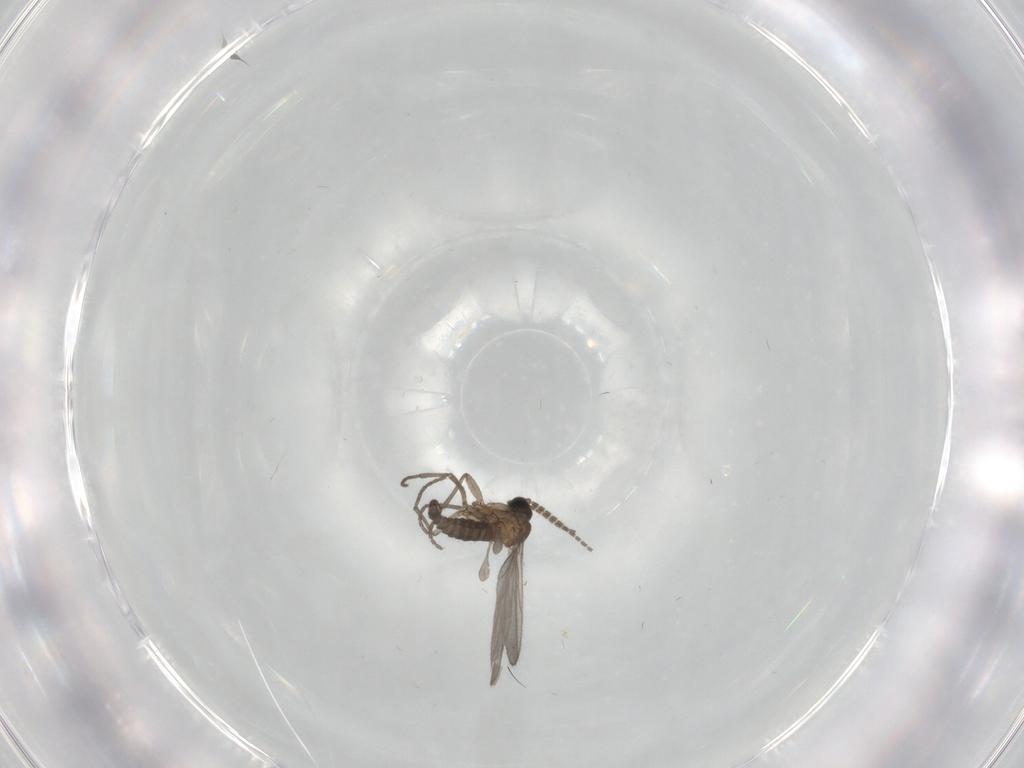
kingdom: Animalia
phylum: Arthropoda
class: Insecta
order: Diptera
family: Sciaridae
